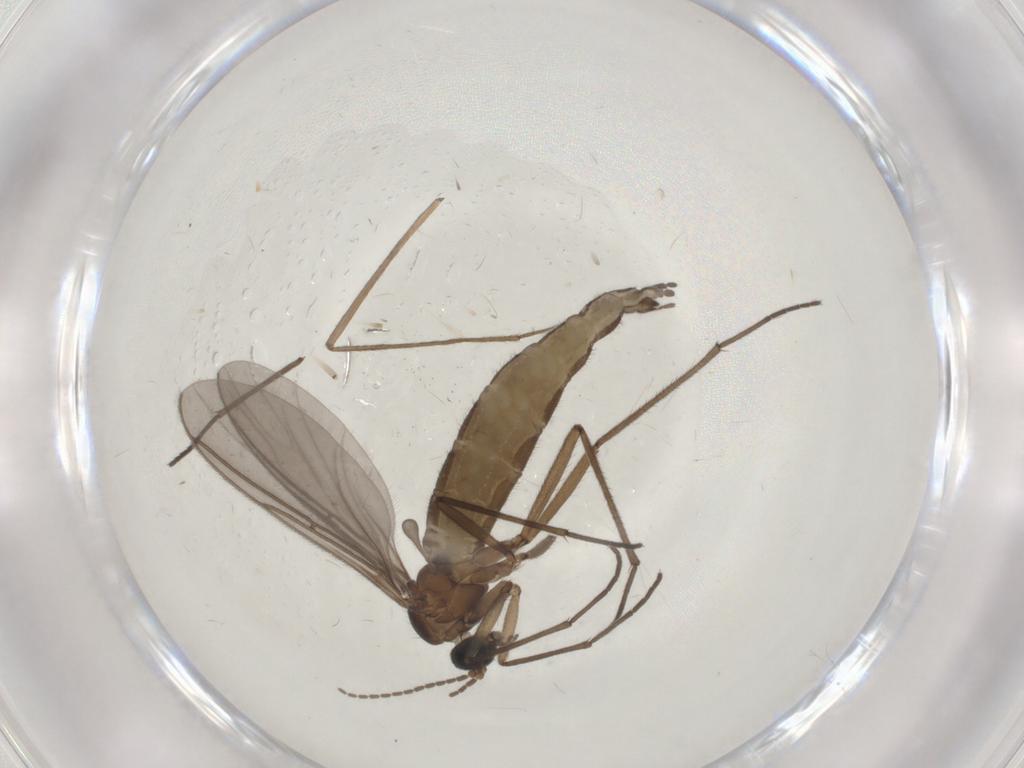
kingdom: Animalia
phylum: Arthropoda
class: Insecta
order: Diptera
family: Sciaridae
